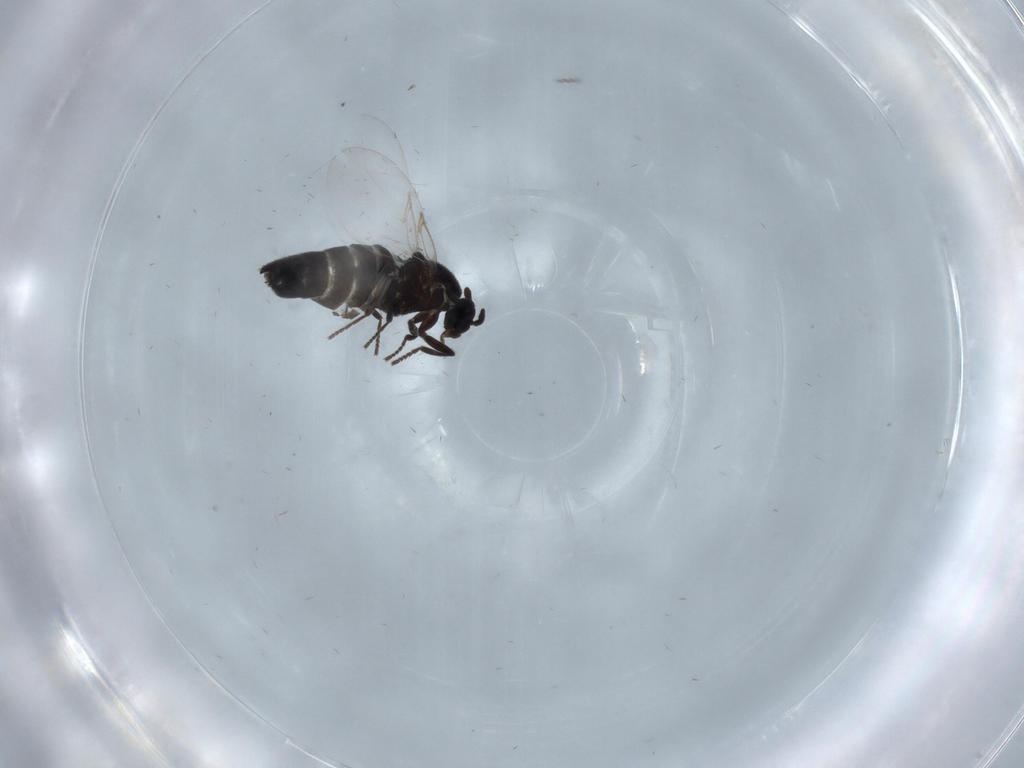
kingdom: Animalia
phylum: Arthropoda
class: Insecta
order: Diptera
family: Scatopsidae
